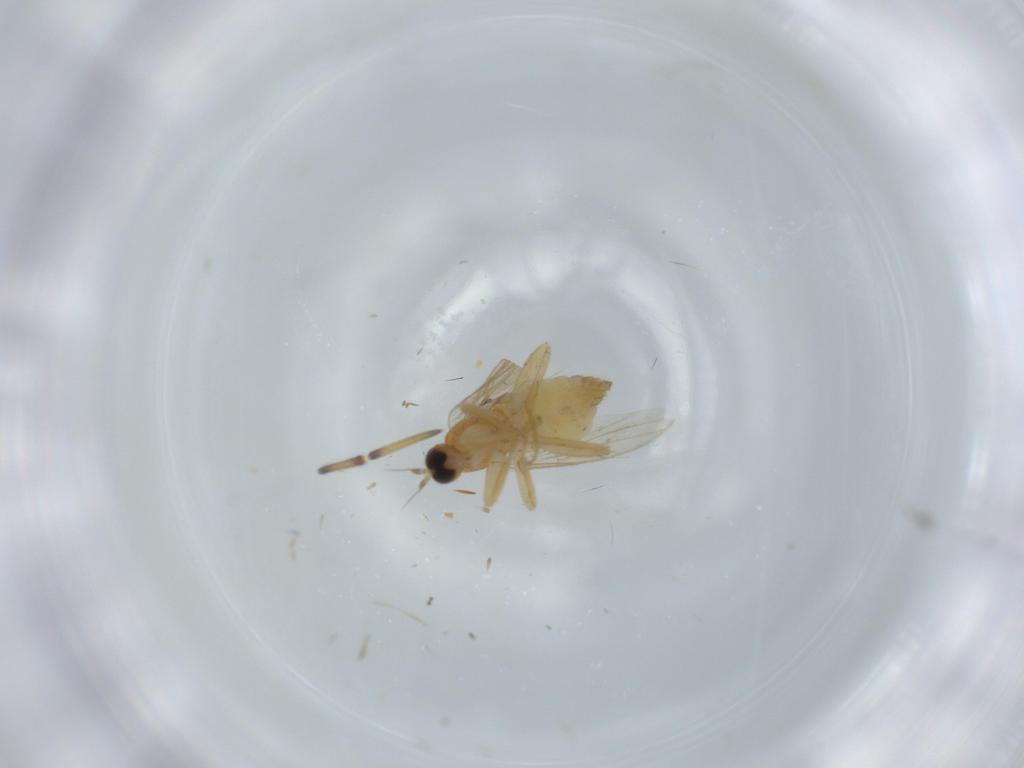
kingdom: Animalia
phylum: Arthropoda
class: Insecta
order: Diptera
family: Hybotidae
